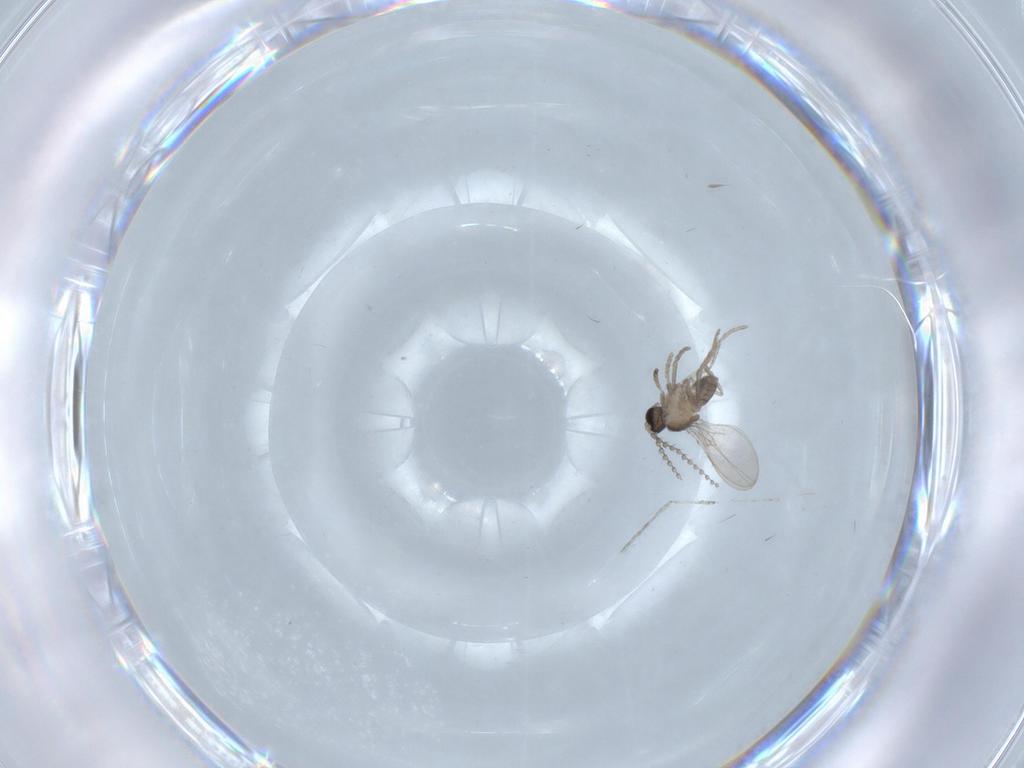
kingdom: Animalia
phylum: Arthropoda
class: Insecta
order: Diptera
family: Cecidomyiidae
